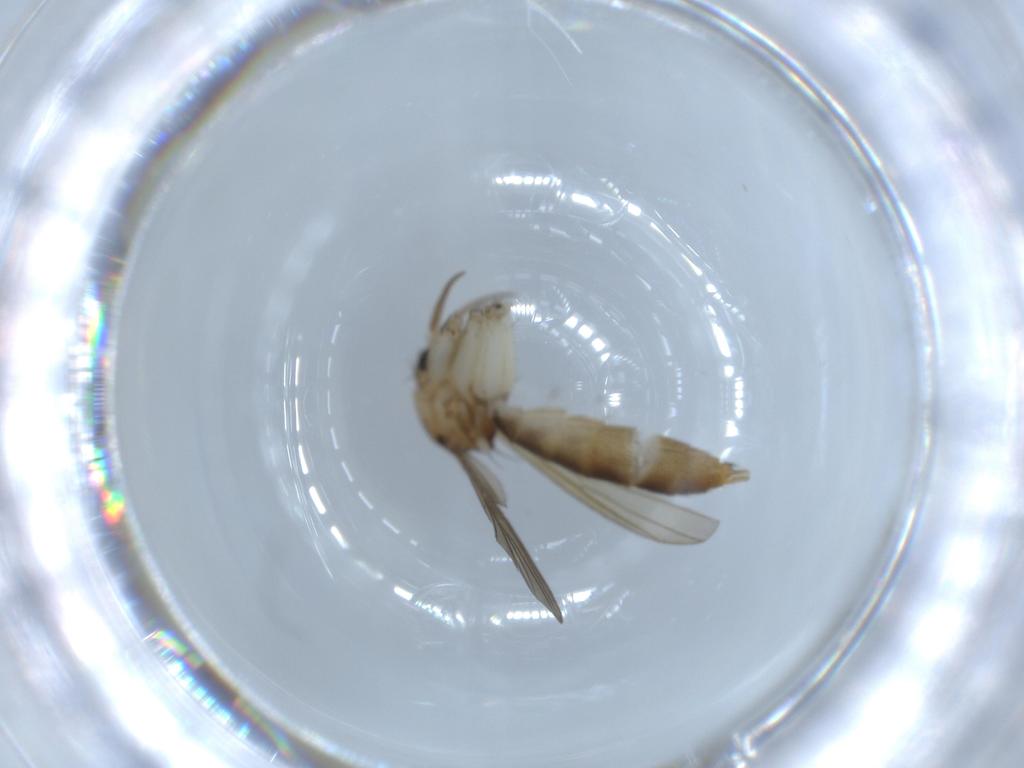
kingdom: Animalia
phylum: Arthropoda
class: Insecta
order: Diptera
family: Mycetophilidae
